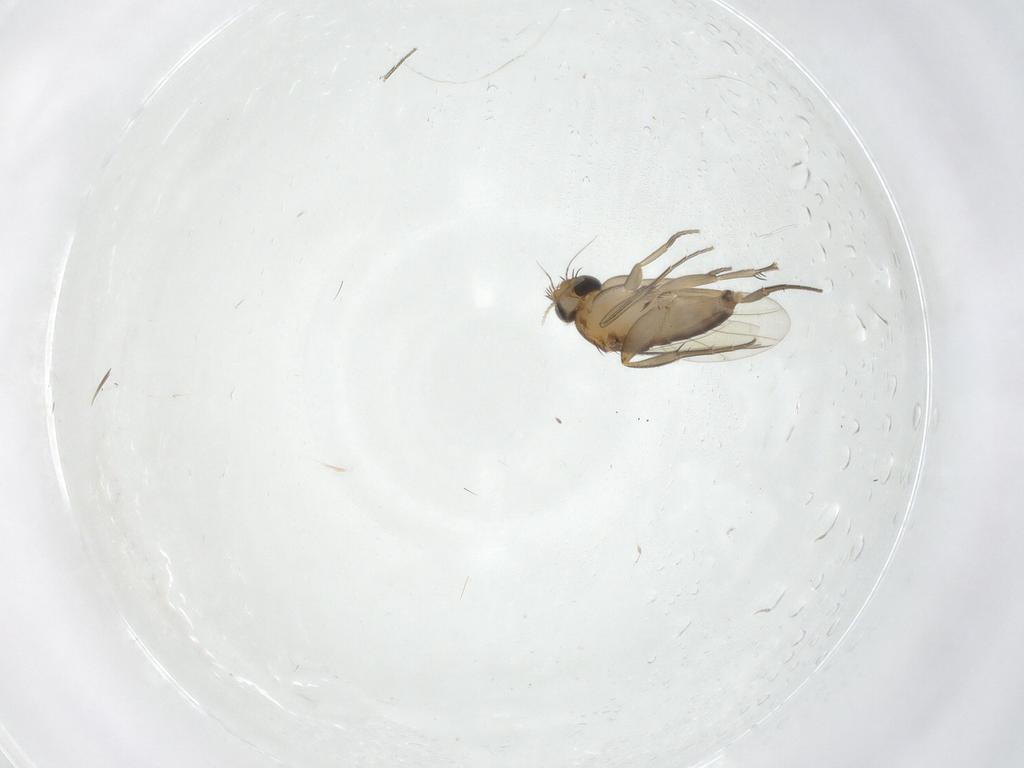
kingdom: Animalia
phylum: Arthropoda
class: Insecta
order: Diptera
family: Phoridae
